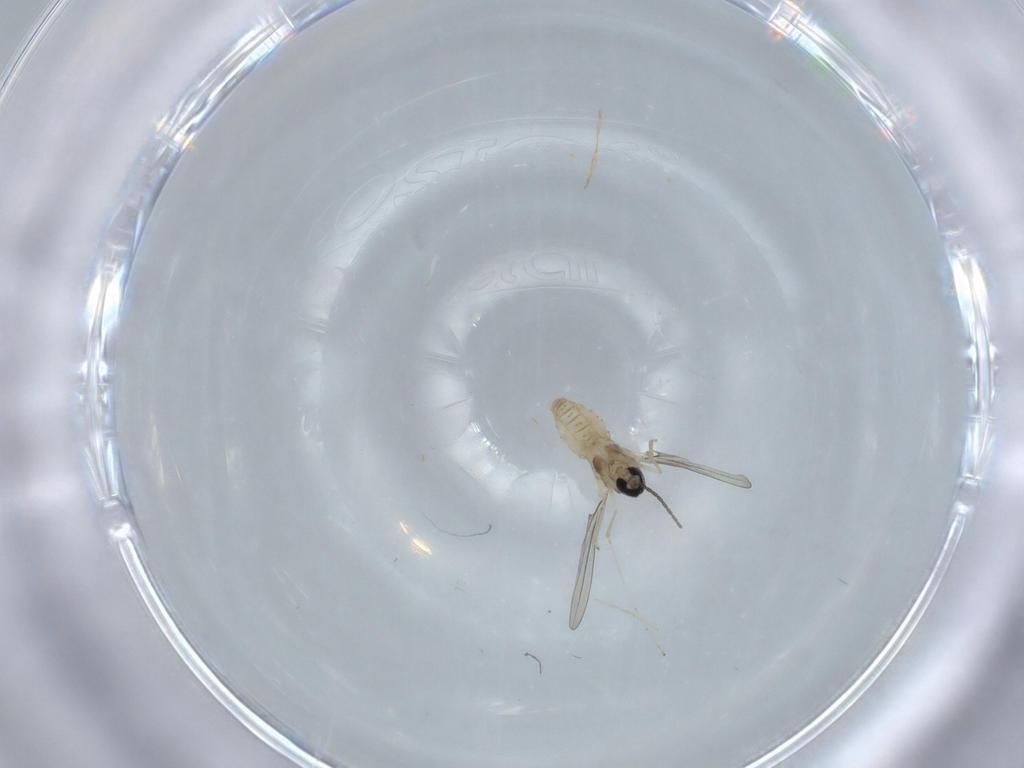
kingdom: Animalia
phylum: Arthropoda
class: Insecta
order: Diptera
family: Cecidomyiidae
